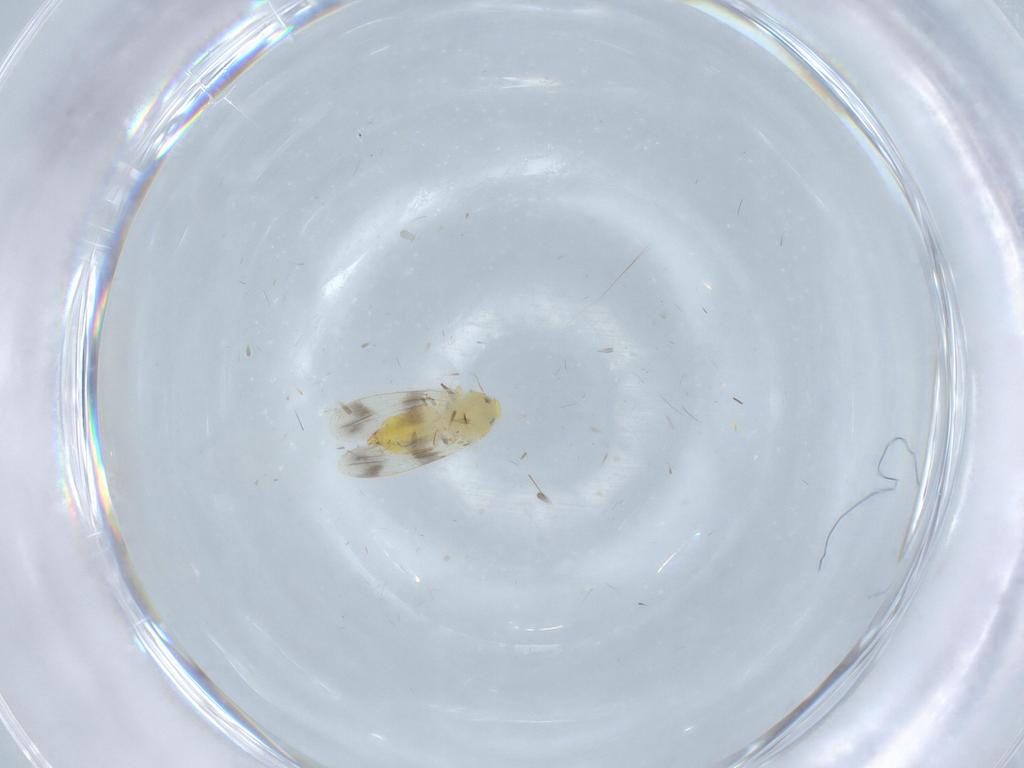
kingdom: Animalia
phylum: Arthropoda
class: Insecta
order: Hemiptera
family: Aleyrodidae
